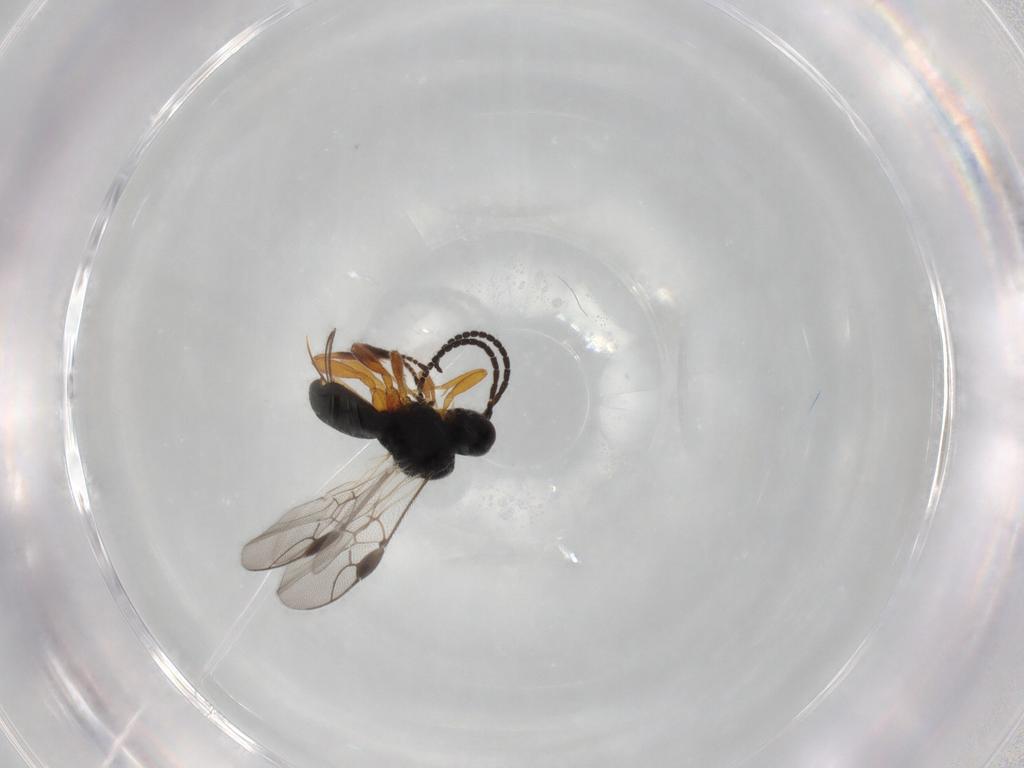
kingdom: Animalia
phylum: Arthropoda
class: Insecta
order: Hymenoptera
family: Braconidae
